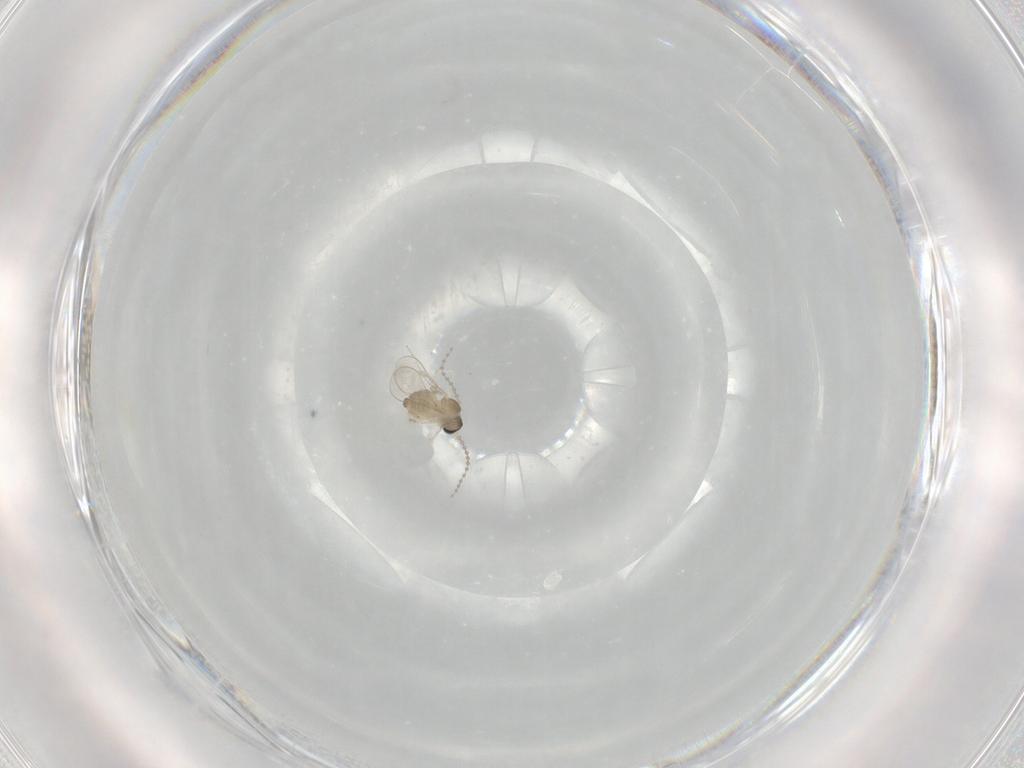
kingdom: Animalia
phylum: Arthropoda
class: Insecta
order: Diptera
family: Cecidomyiidae
